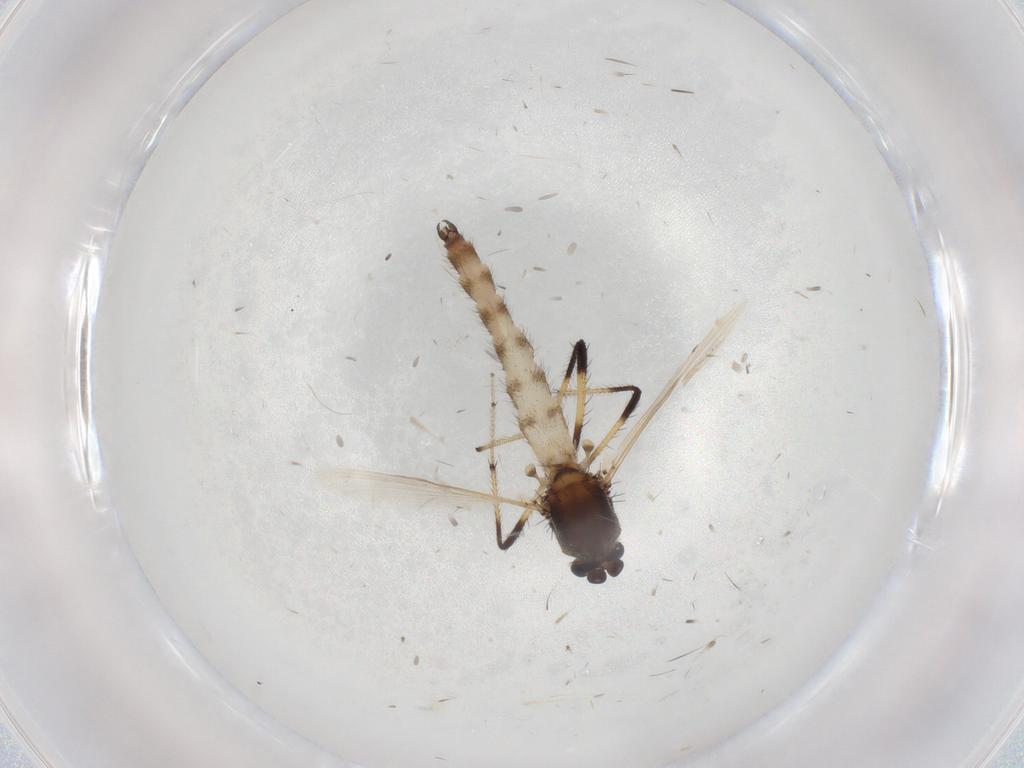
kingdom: Animalia
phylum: Arthropoda
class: Insecta
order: Diptera
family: Ceratopogonidae
